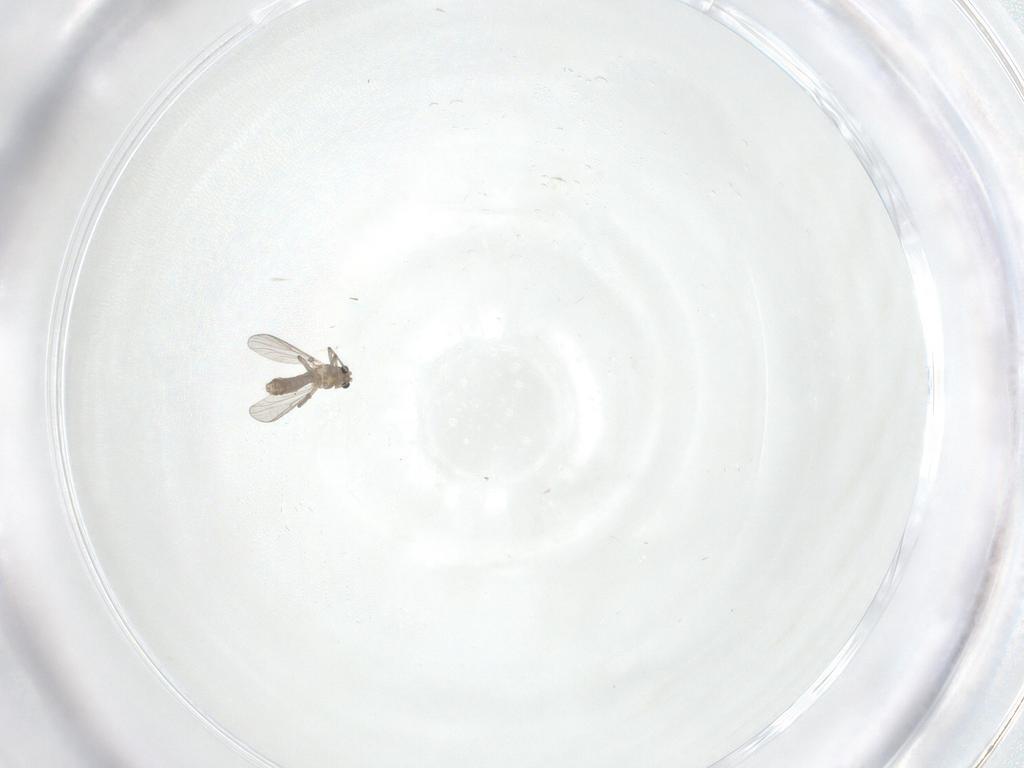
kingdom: Animalia
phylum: Arthropoda
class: Insecta
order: Diptera
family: Chironomidae
